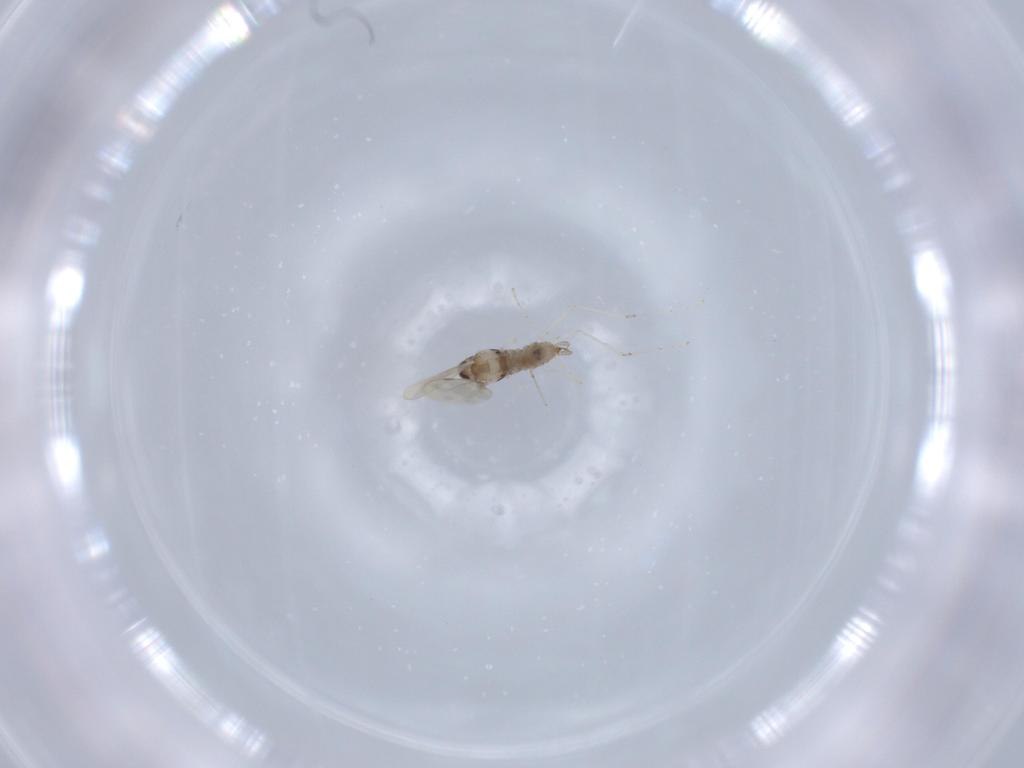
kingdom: Animalia
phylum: Arthropoda
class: Insecta
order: Diptera
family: Cecidomyiidae
